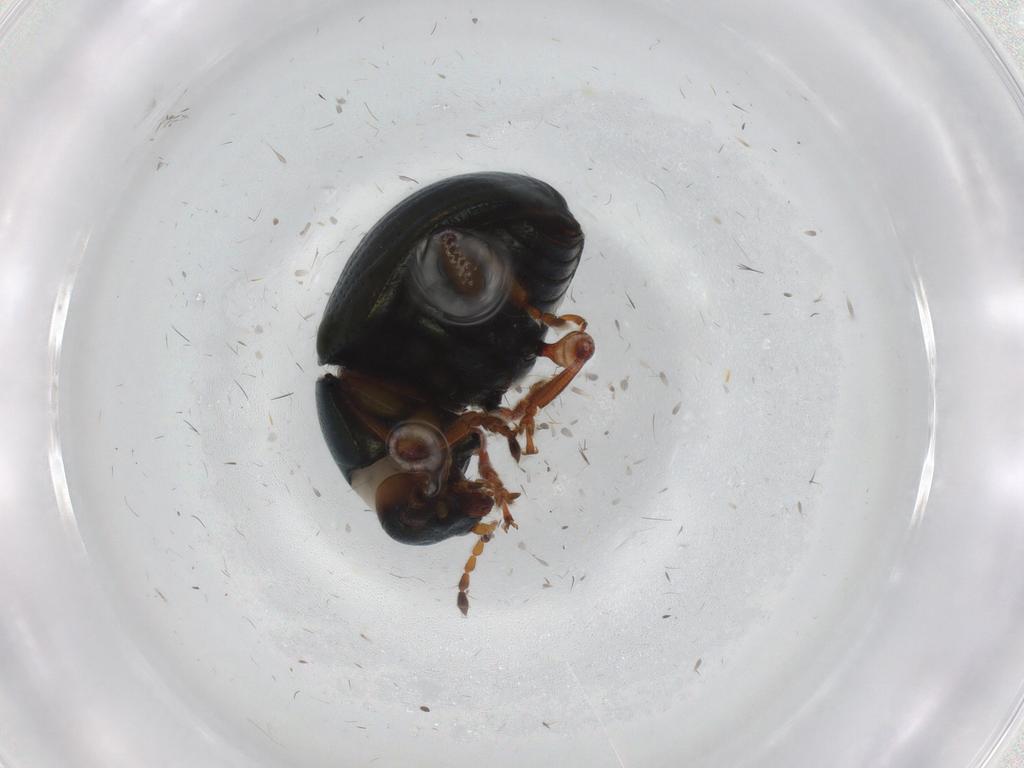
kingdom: Animalia
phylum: Arthropoda
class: Insecta
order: Coleoptera
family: Chrysomelidae
